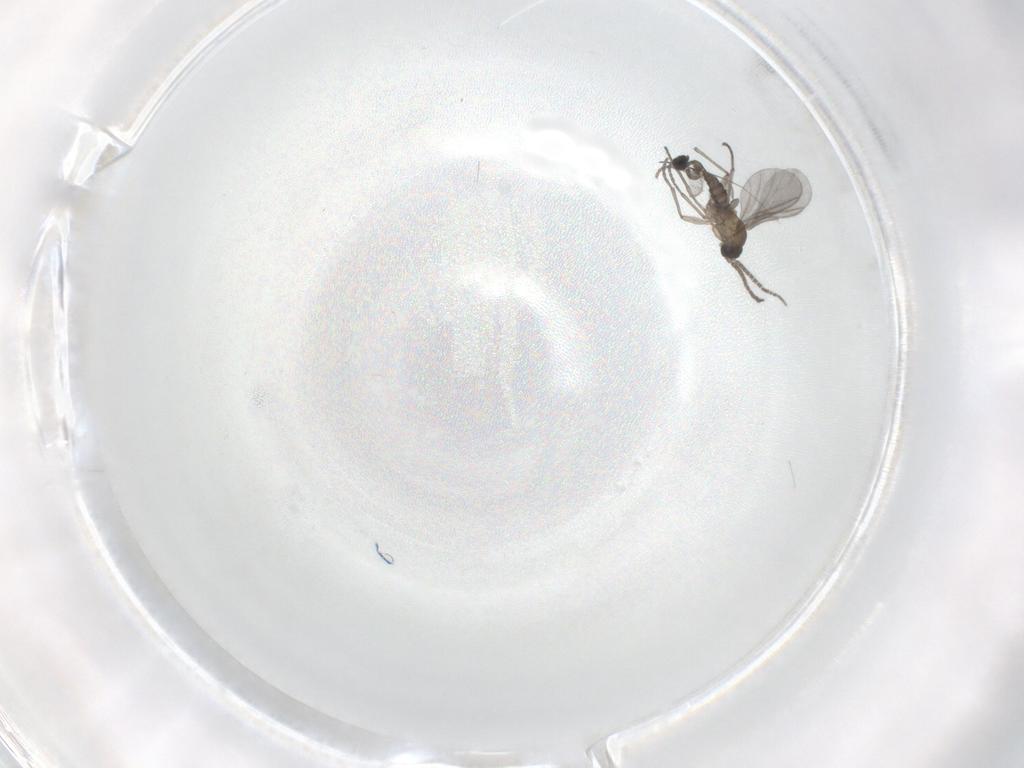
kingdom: Animalia
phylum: Arthropoda
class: Insecta
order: Diptera
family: Sciaridae
